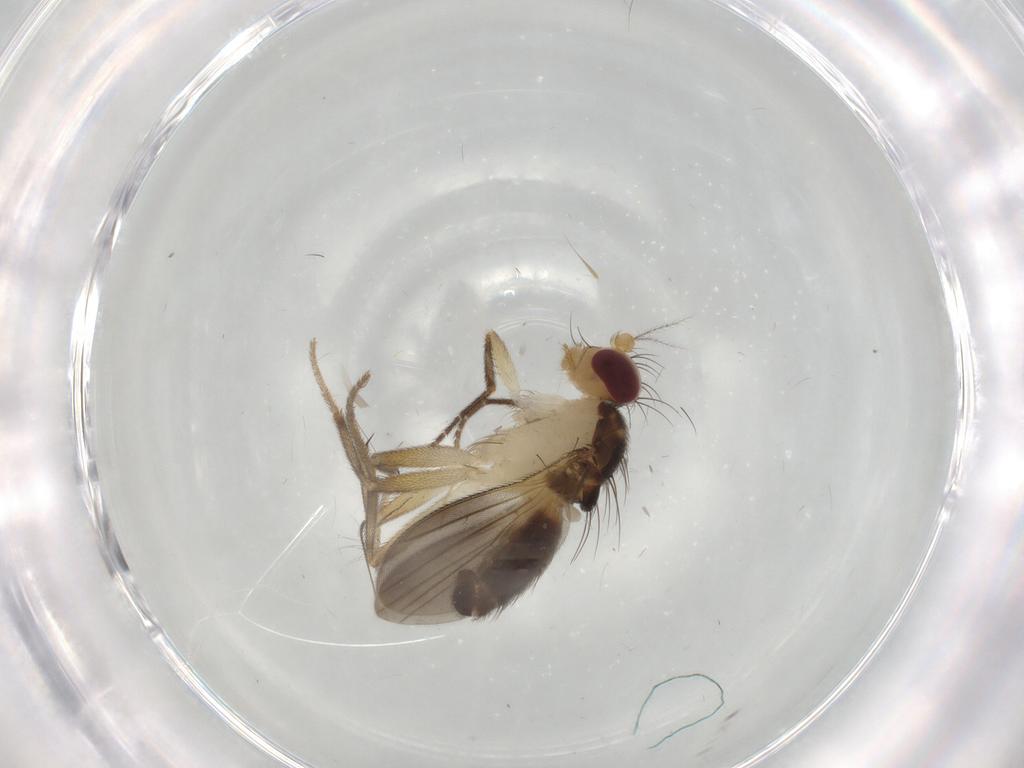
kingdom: Animalia
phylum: Arthropoda
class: Insecta
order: Diptera
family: Clusiidae
